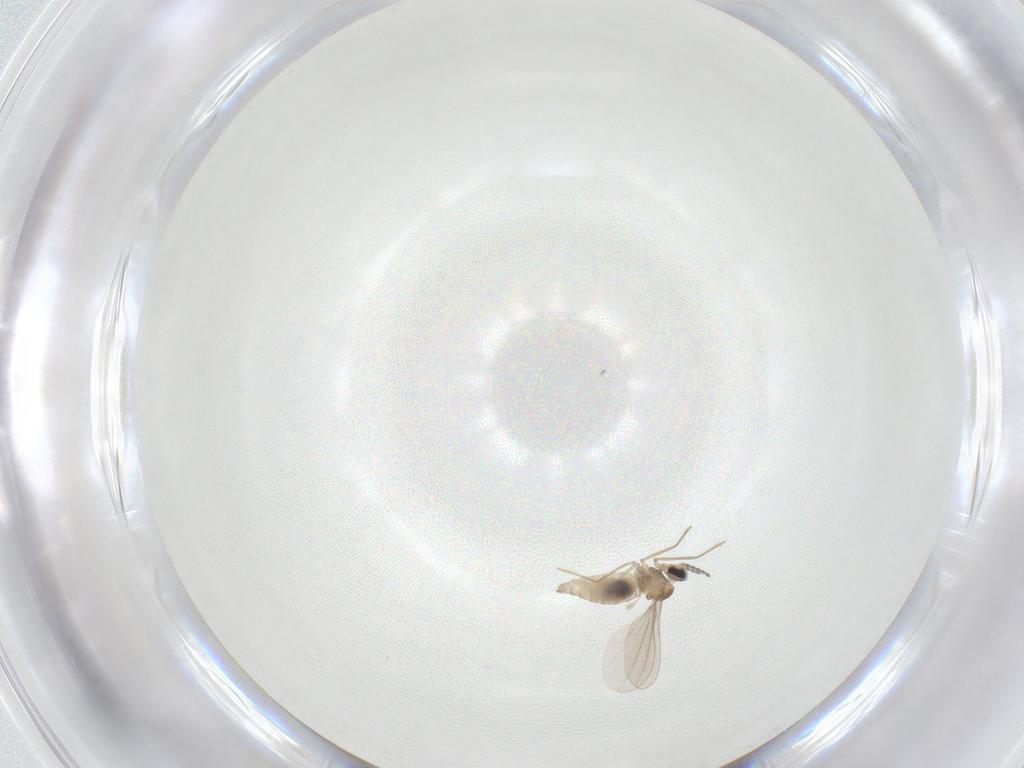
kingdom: Animalia
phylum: Arthropoda
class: Insecta
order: Diptera
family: Cecidomyiidae
